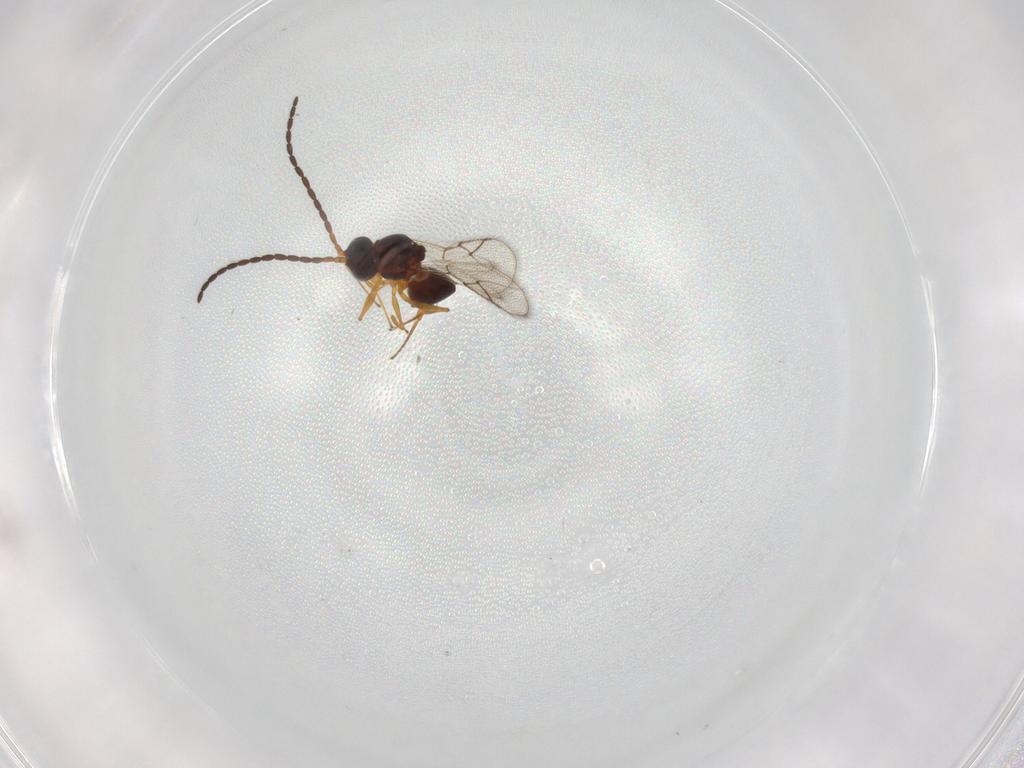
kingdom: Animalia
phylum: Arthropoda
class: Insecta
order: Hymenoptera
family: Figitidae
